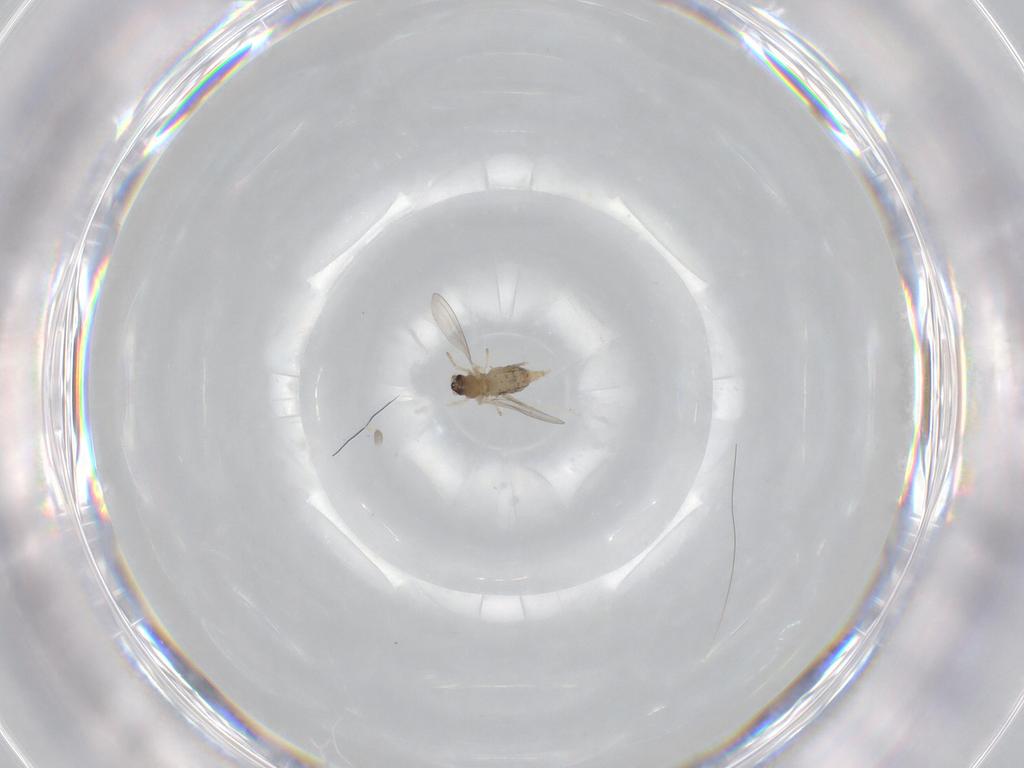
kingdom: Animalia
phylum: Arthropoda
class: Insecta
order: Diptera
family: Cecidomyiidae
